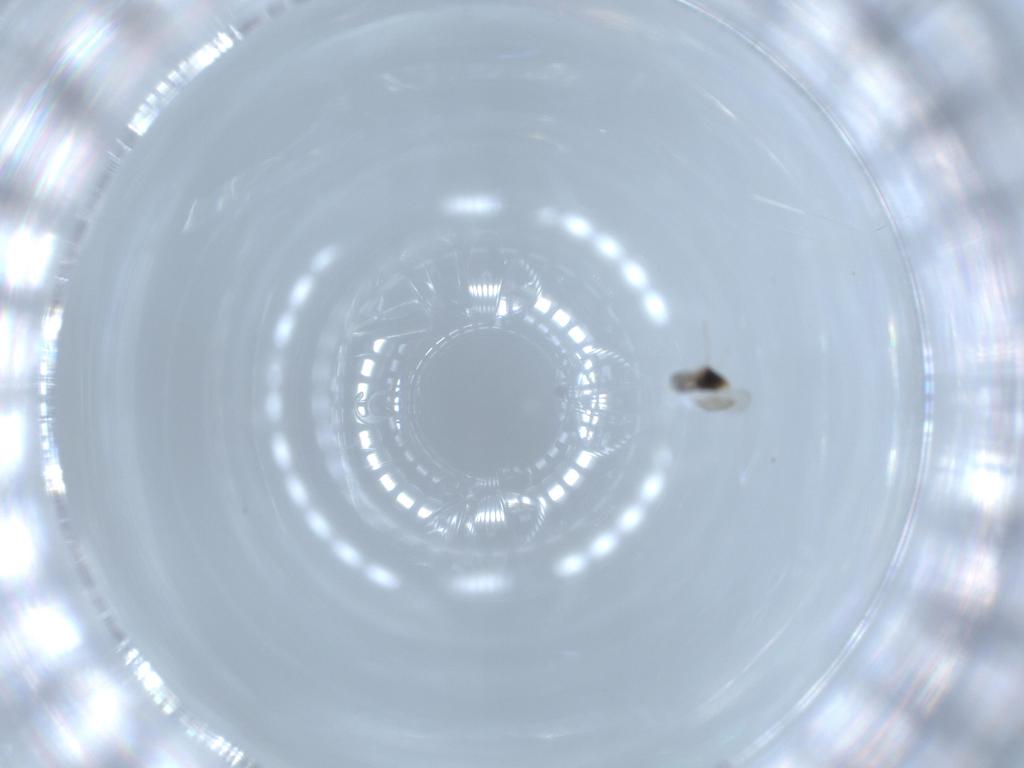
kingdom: Animalia
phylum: Arthropoda
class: Insecta
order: Hymenoptera
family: Aphelinidae
